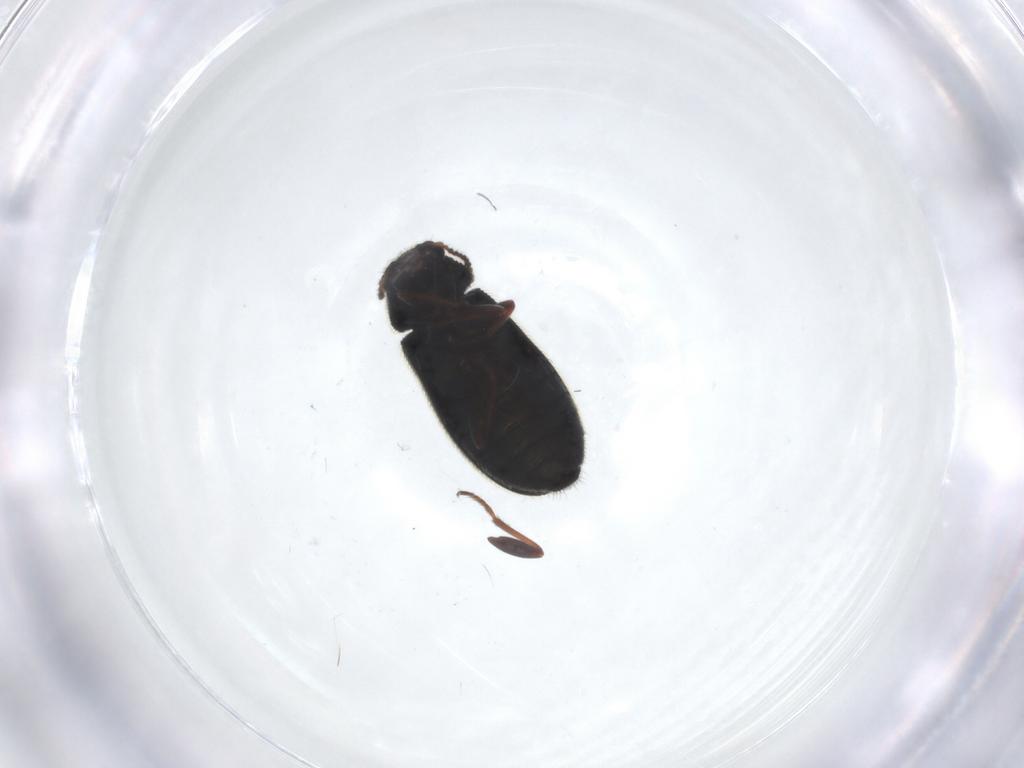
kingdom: Animalia
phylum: Arthropoda
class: Insecta
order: Coleoptera
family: Melyridae
